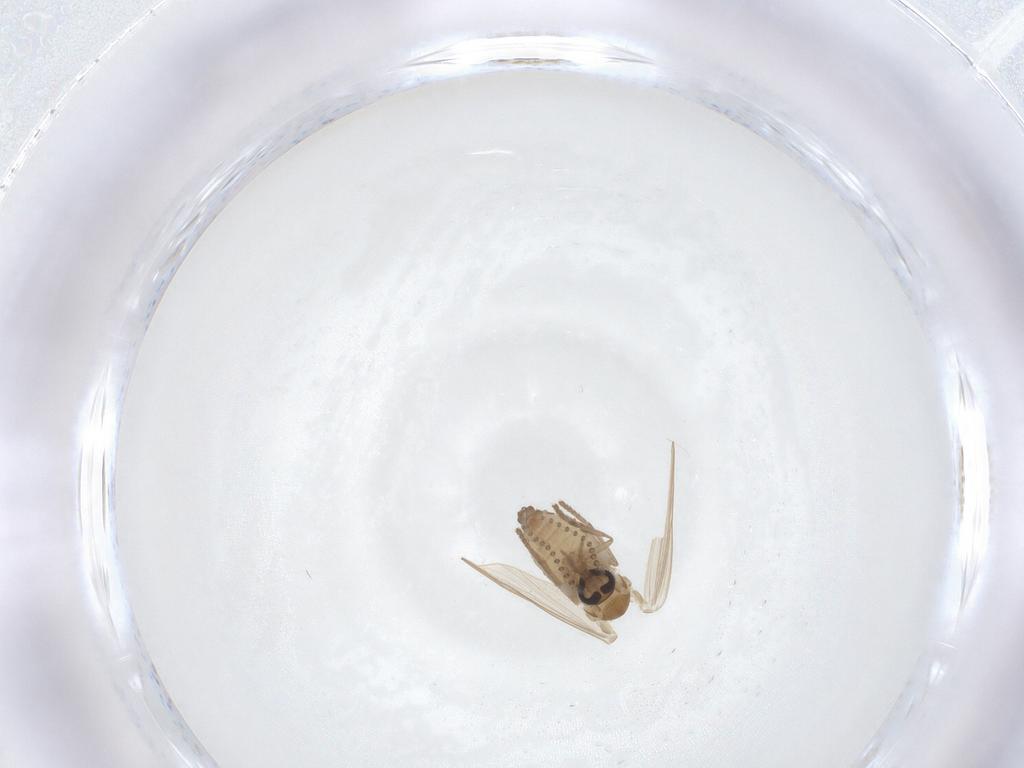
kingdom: Animalia
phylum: Arthropoda
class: Insecta
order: Diptera
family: Psychodidae
